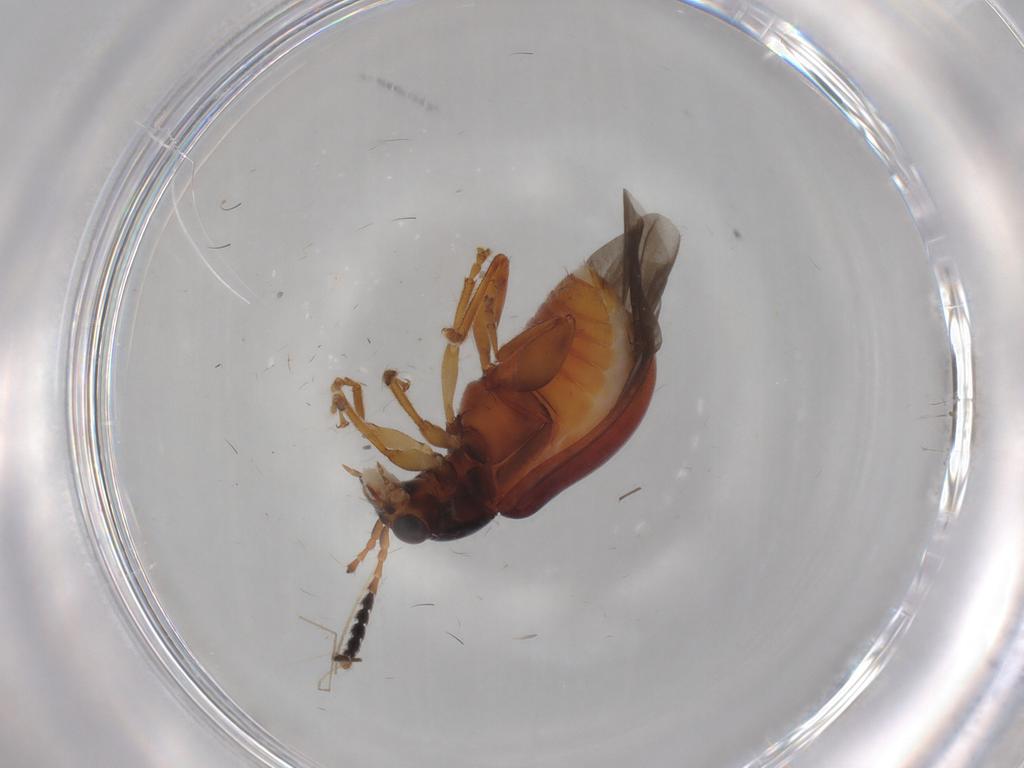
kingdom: Animalia
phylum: Arthropoda
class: Insecta
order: Coleoptera
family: Chrysomelidae
